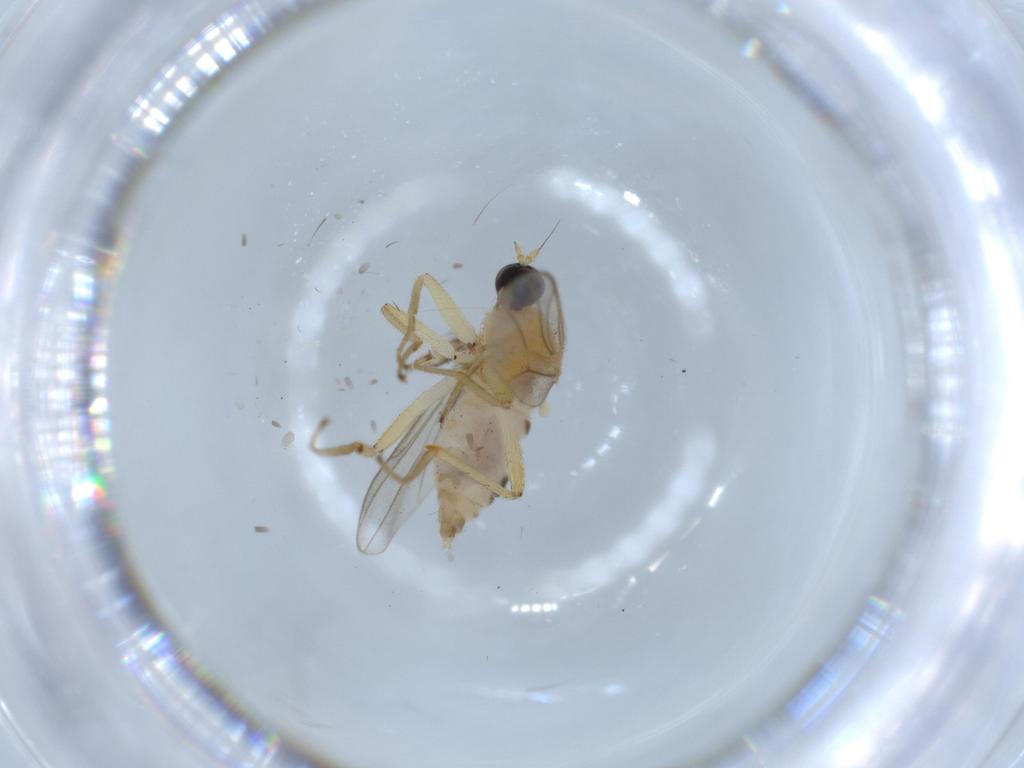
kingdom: Animalia
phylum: Arthropoda
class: Insecta
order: Diptera
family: Hybotidae
